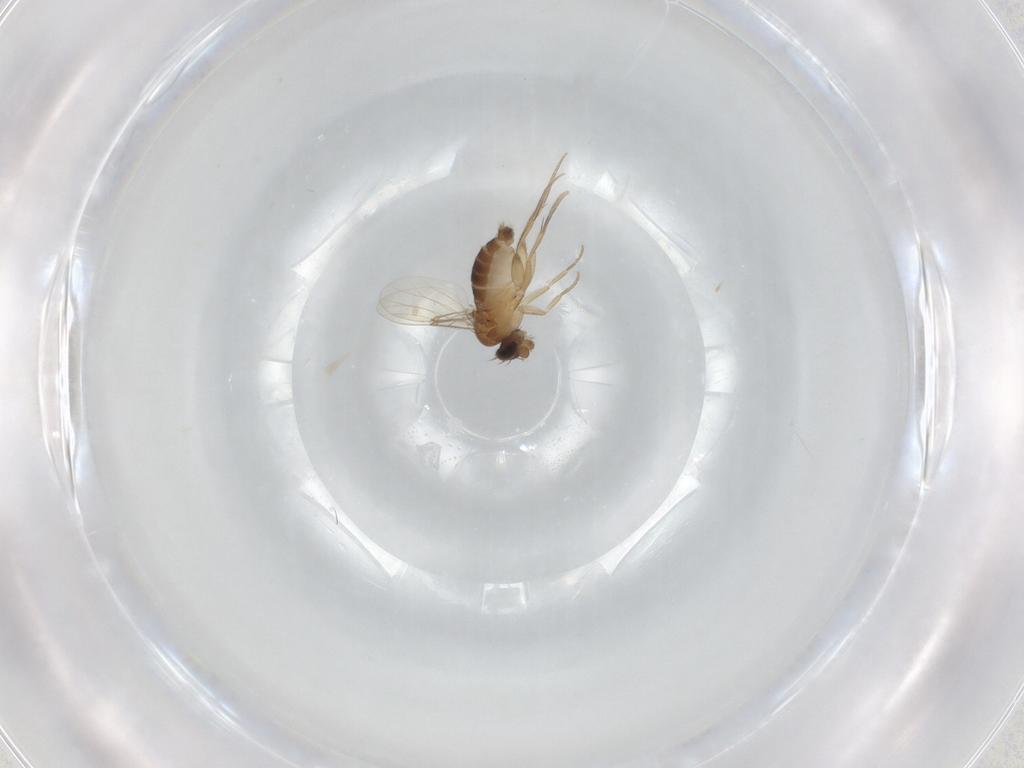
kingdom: Animalia
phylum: Arthropoda
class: Insecta
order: Diptera
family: Phoridae
